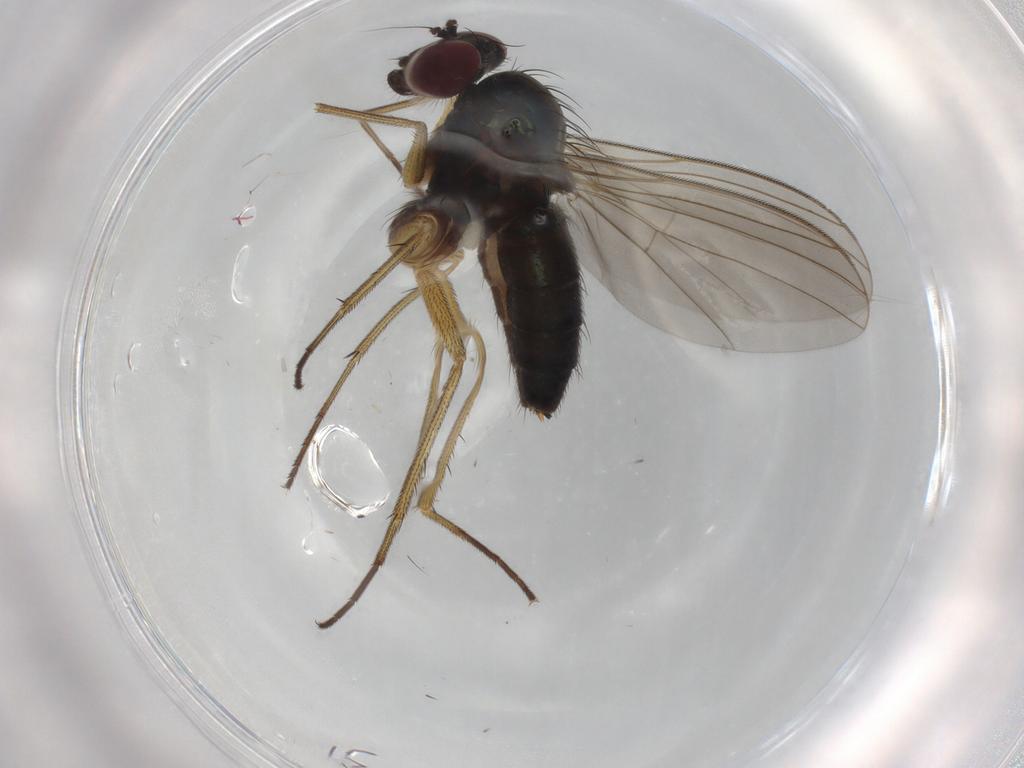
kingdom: Animalia
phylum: Arthropoda
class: Insecta
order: Diptera
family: Dolichopodidae
